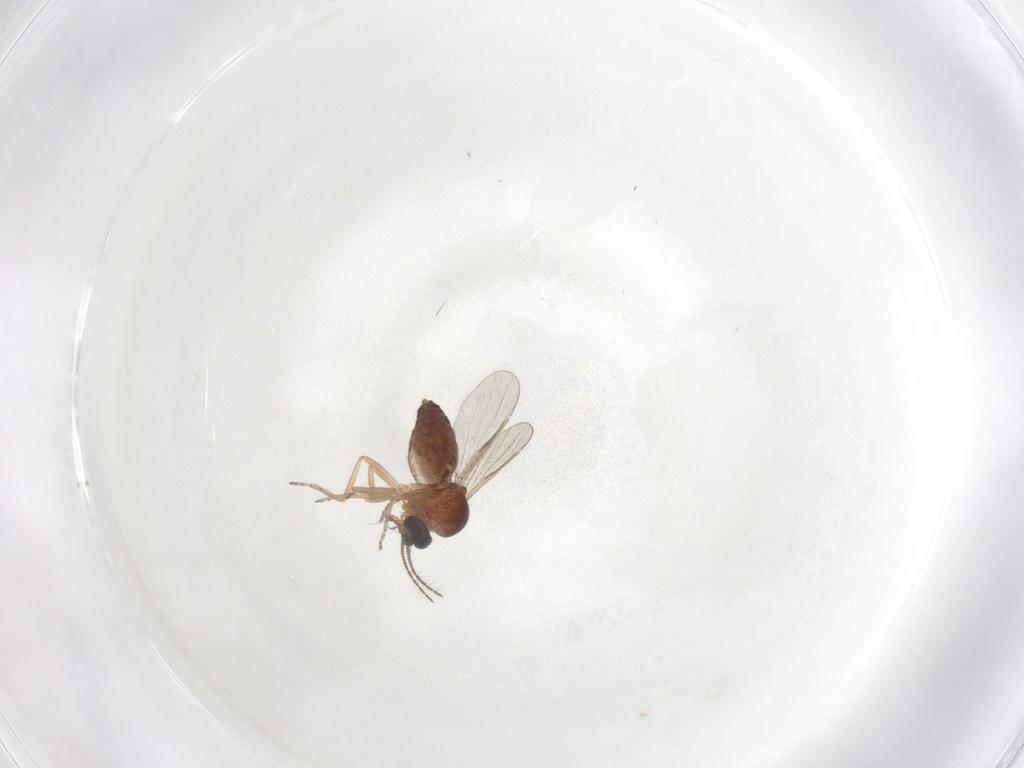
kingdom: Animalia
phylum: Arthropoda
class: Insecta
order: Diptera
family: Ceratopogonidae
